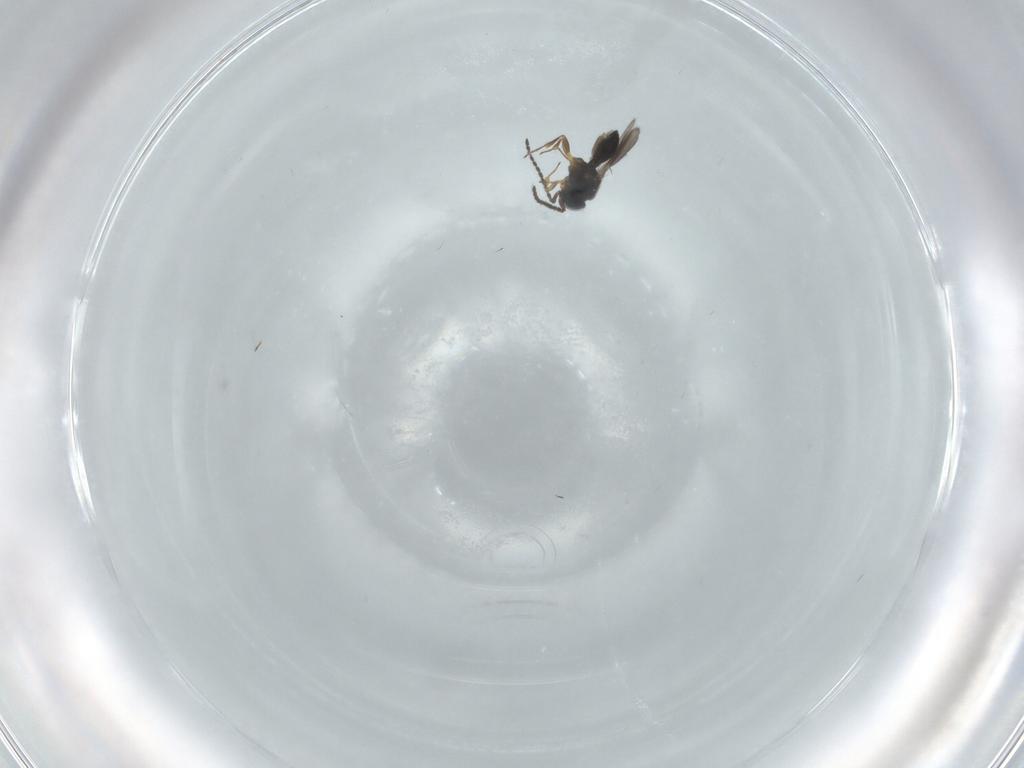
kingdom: Animalia
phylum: Arthropoda
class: Insecta
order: Hymenoptera
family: Scelionidae
